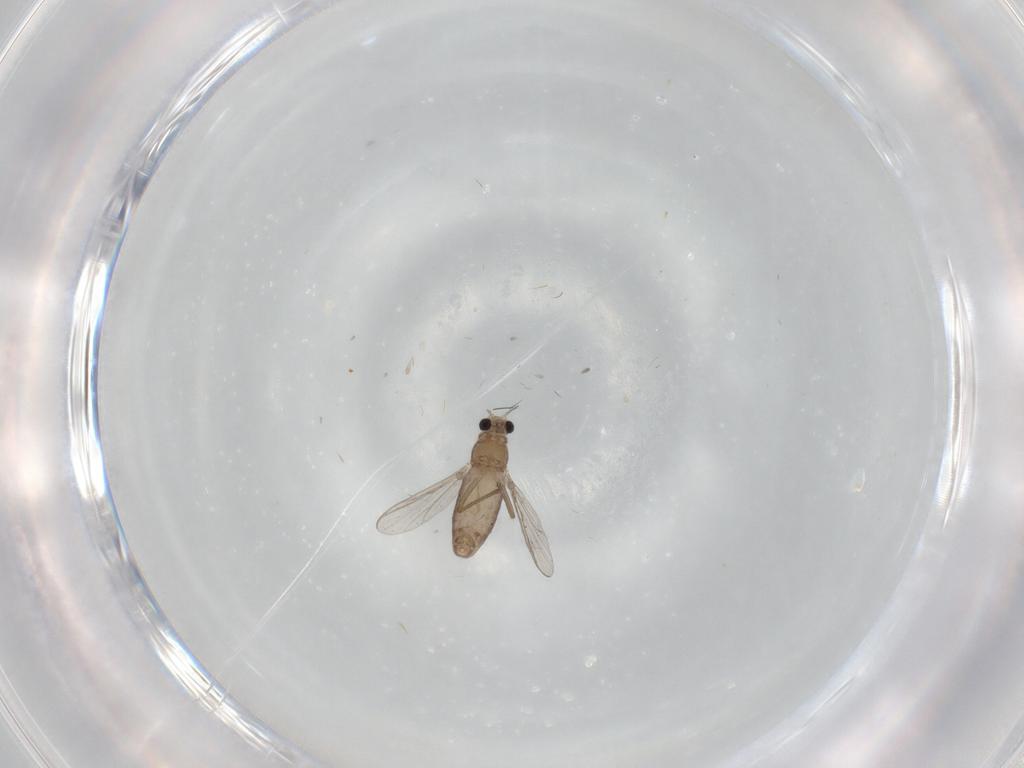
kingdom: Animalia
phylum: Arthropoda
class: Insecta
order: Diptera
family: Chironomidae
